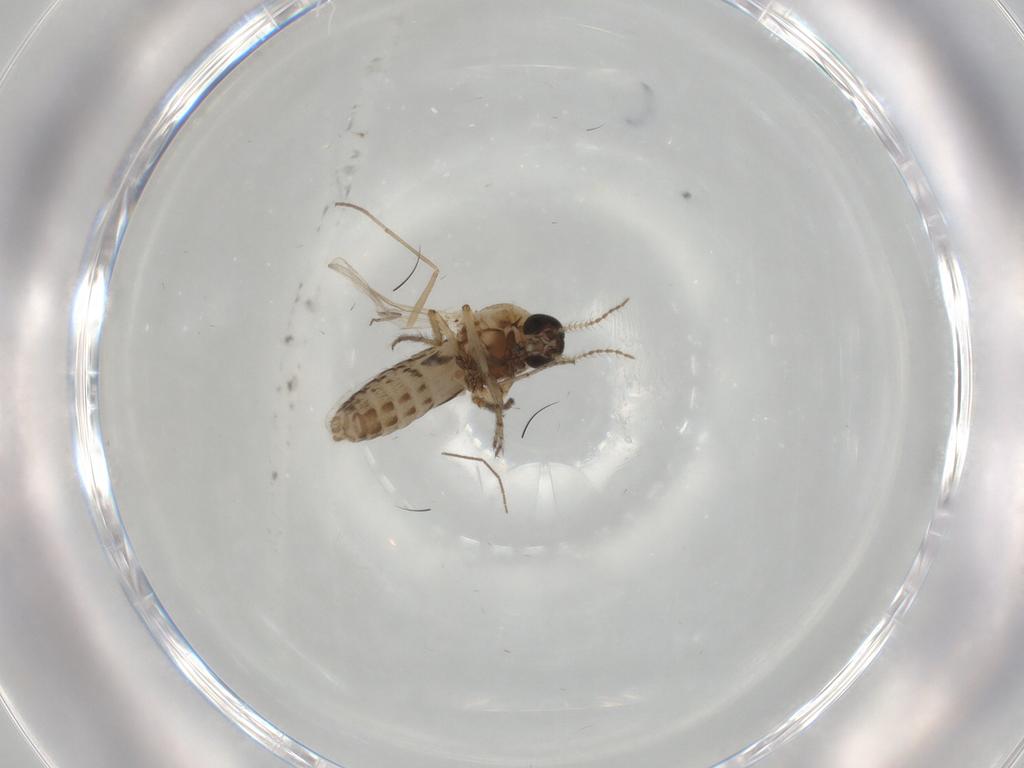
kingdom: Animalia
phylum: Arthropoda
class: Insecta
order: Diptera
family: Ceratopogonidae
